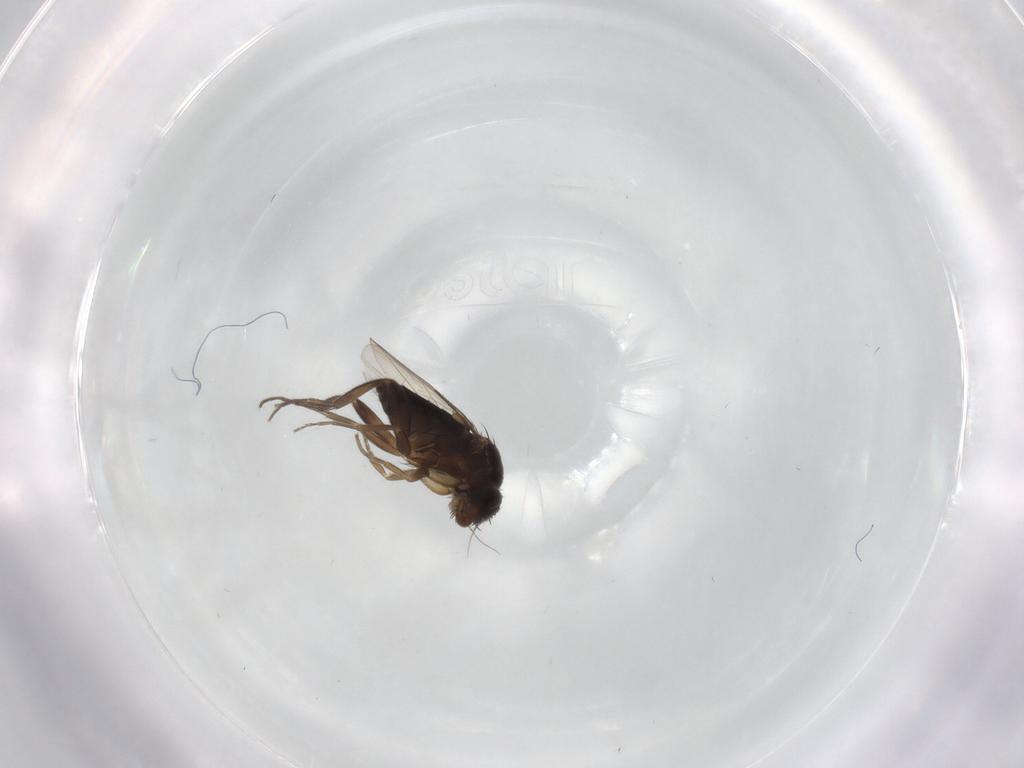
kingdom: Animalia
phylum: Arthropoda
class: Insecta
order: Diptera
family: Phoridae
